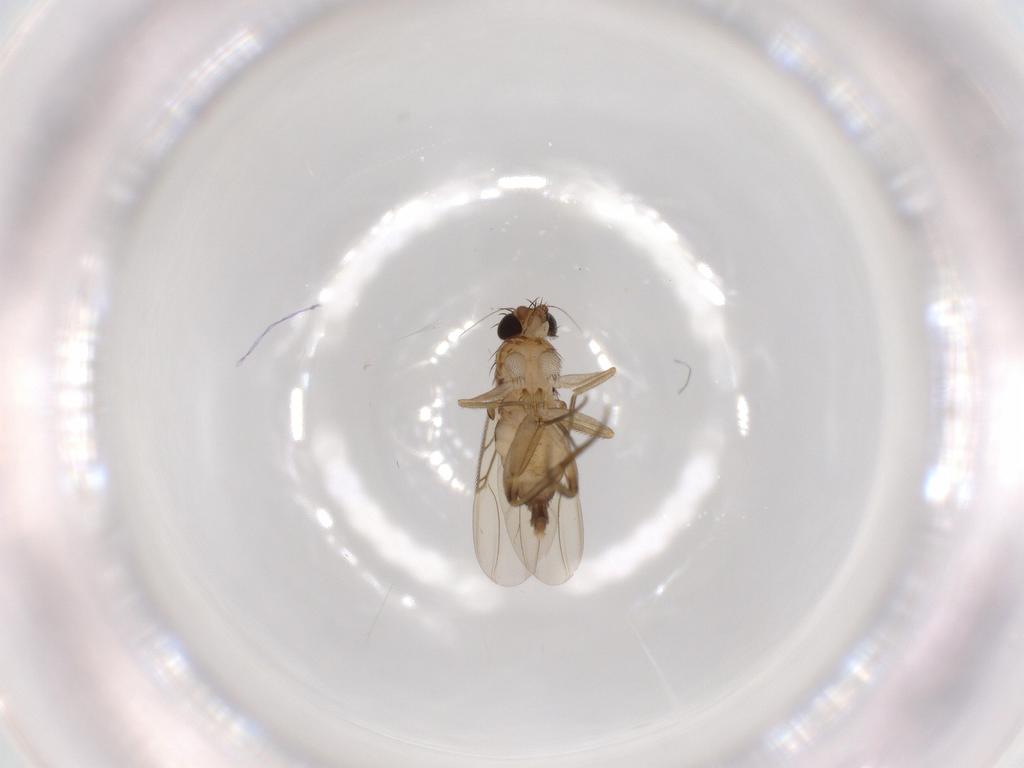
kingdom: Animalia
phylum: Arthropoda
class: Insecta
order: Diptera
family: Phoridae
